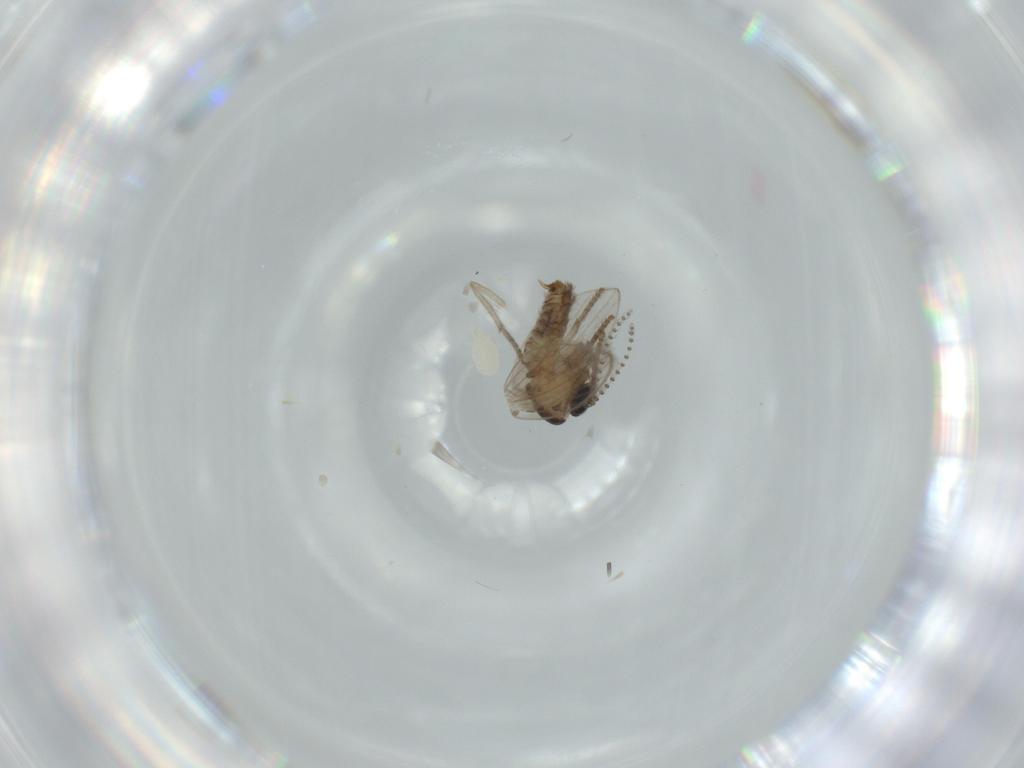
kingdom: Animalia
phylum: Arthropoda
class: Insecta
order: Diptera
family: Psychodidae
